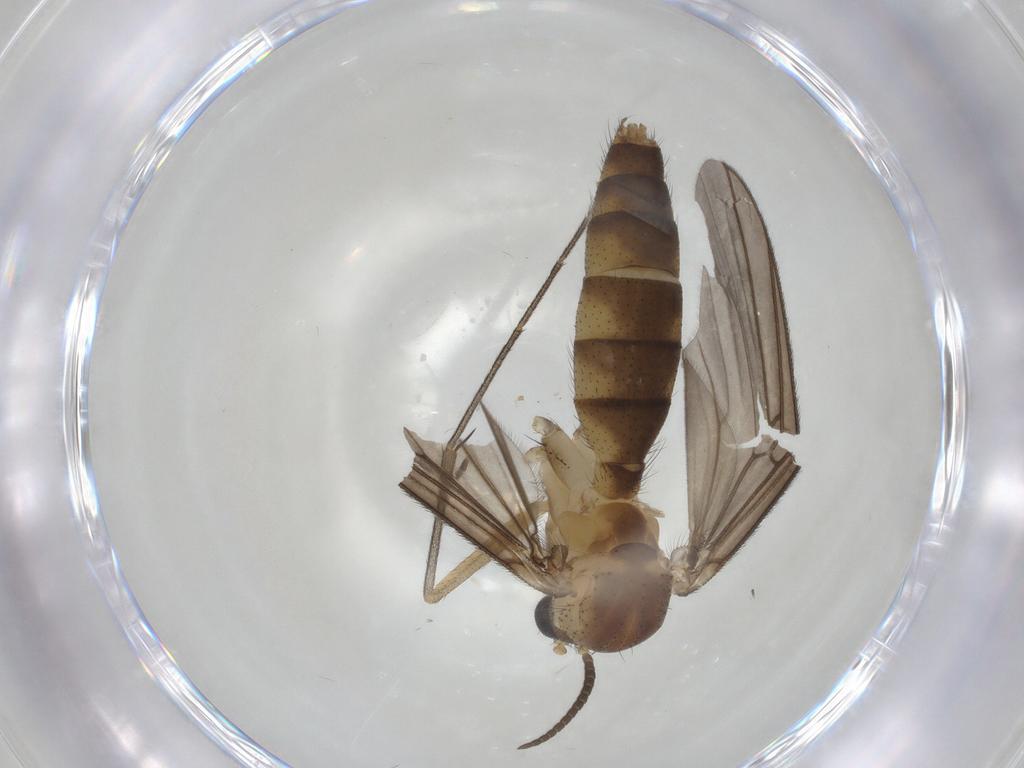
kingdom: Animalia
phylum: Arthropoda
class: Insecta
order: Diptera
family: Mycetophilidae
